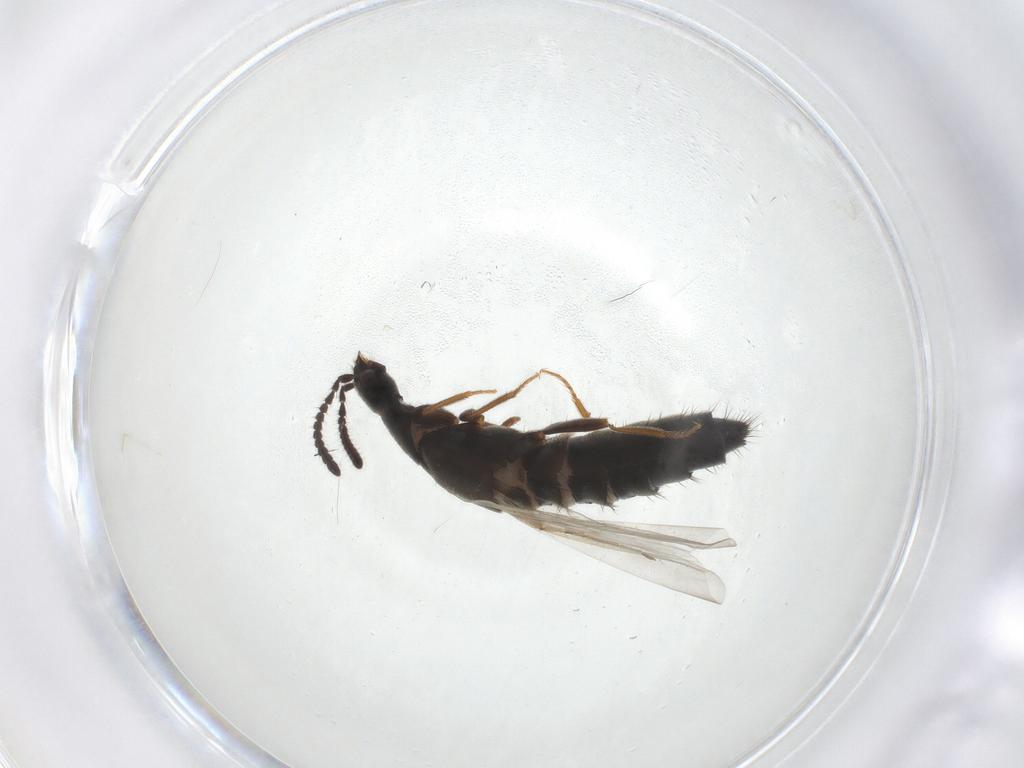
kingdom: Animalia
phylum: Arthropoda
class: Insecta
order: Coleoptera
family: Staphylinidae
